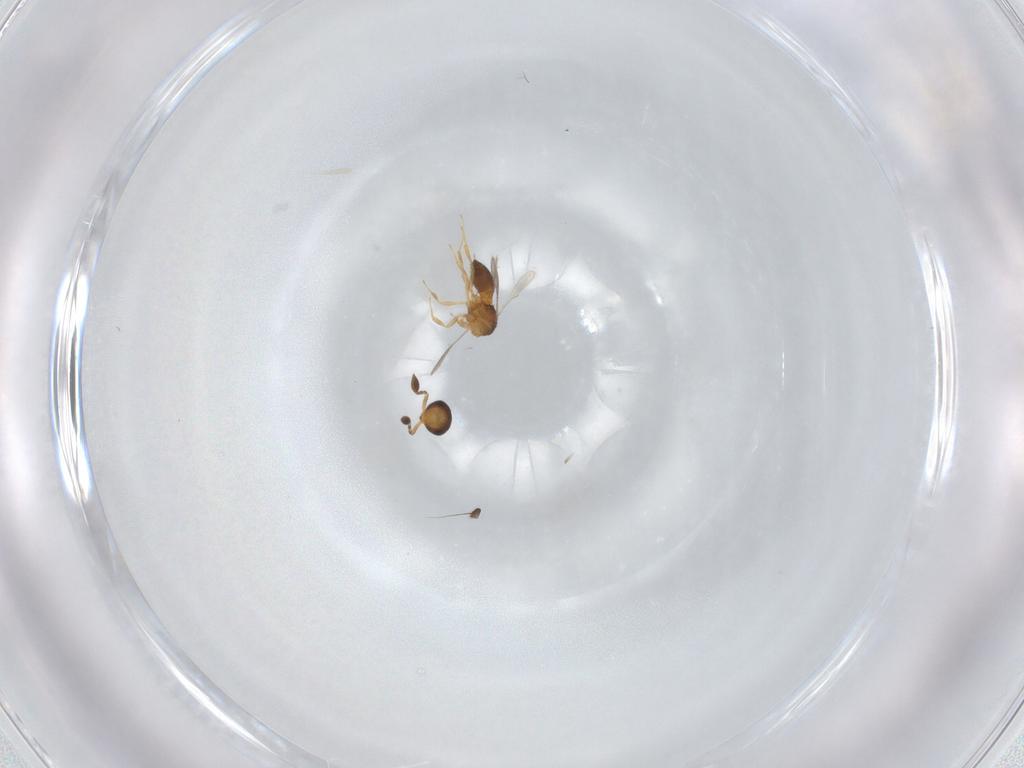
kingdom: Animalia
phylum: Arthropoda
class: Insecta
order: Hymenoptera
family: Scelionidae
